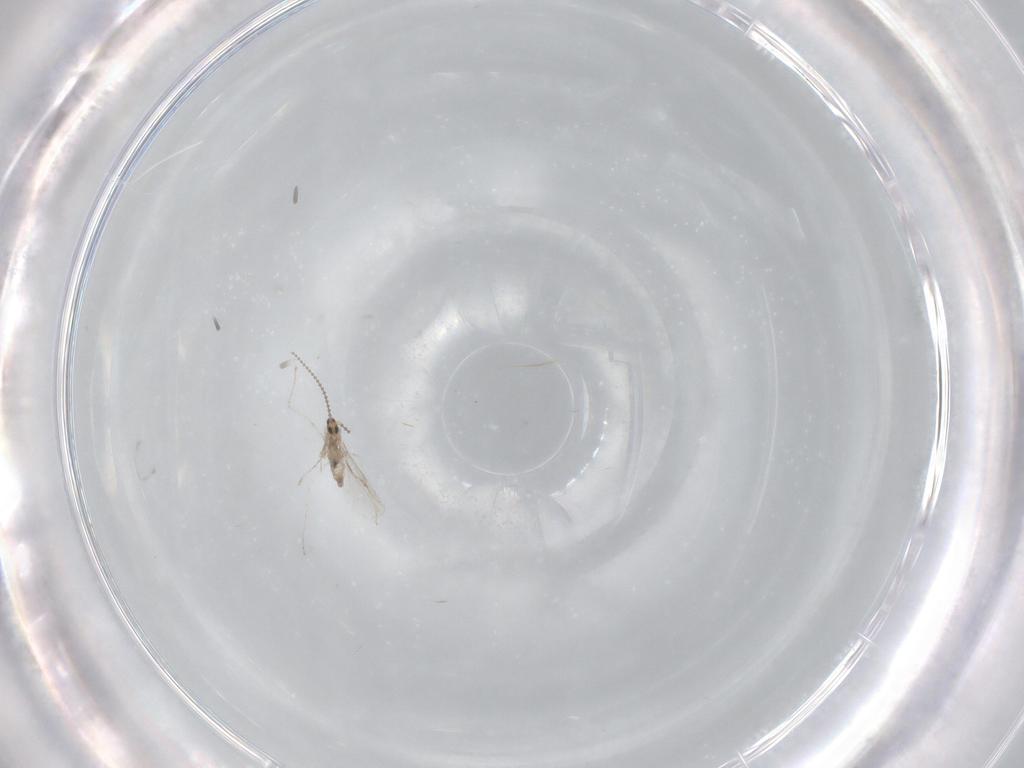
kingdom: Animalia
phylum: Arthropoda
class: Insecta
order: Diptera
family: Cecidomyiidae
